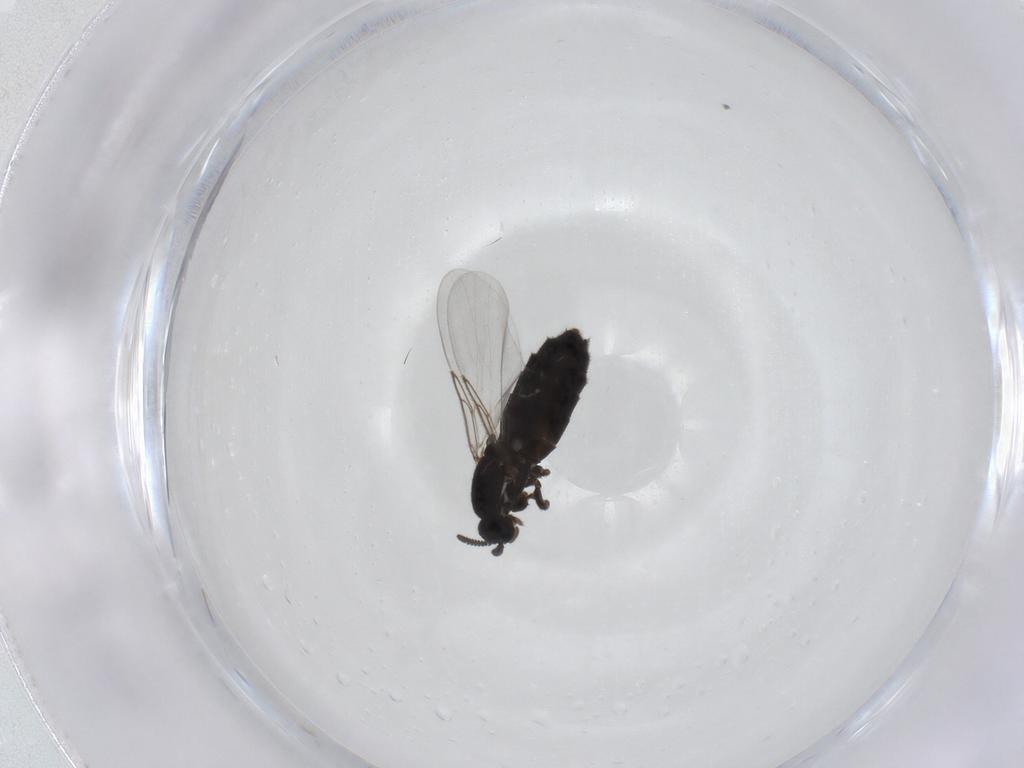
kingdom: Animalia
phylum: Arthropoda
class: Insecta
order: Diptera
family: Scatopsidae
